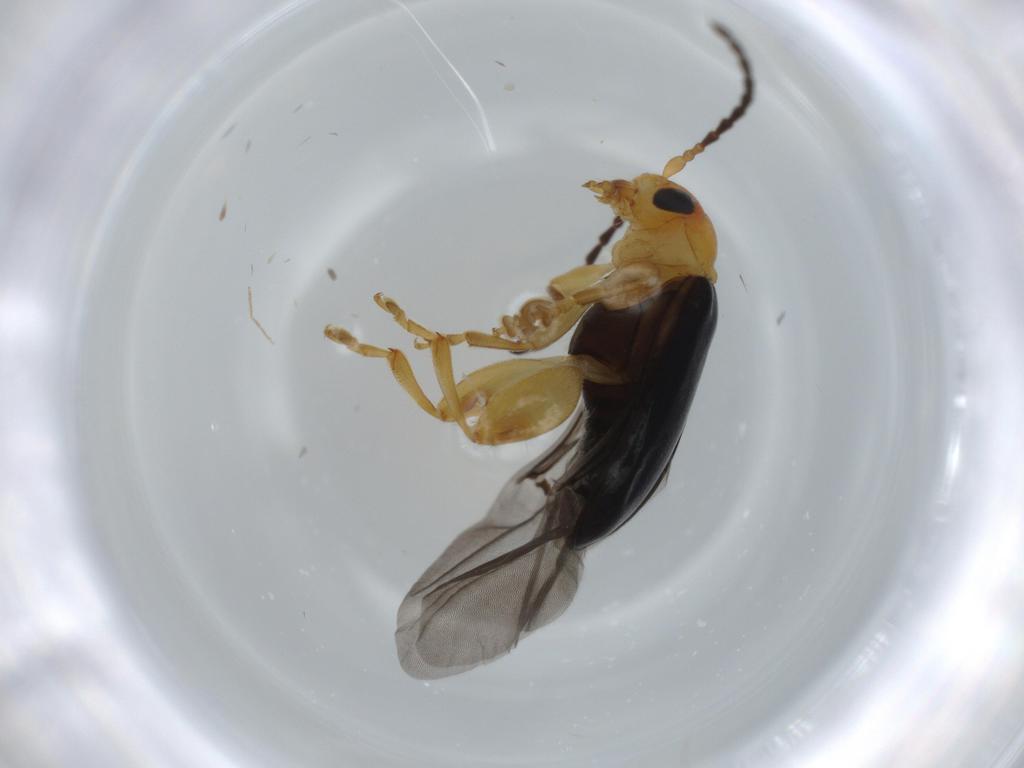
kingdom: Animalia
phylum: Arthropoda
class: Insecta
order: Coleoptera
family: Chrysomelidae
